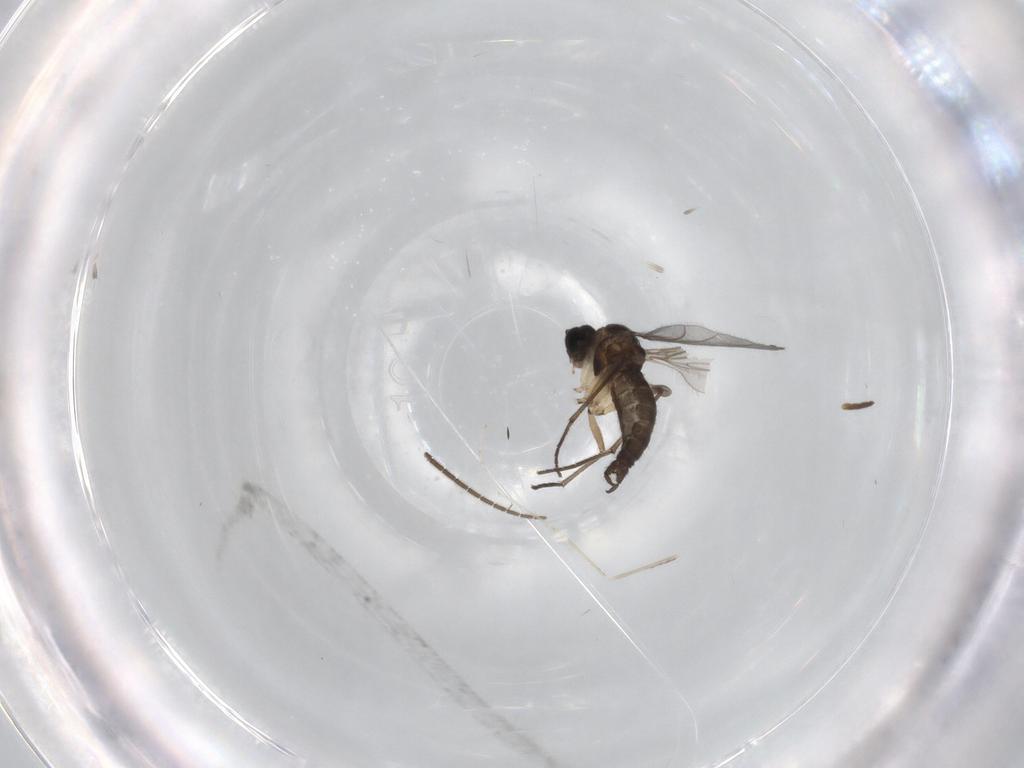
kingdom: Animalia
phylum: Arthropoda
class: Insecta
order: Diptera
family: Sciaridae
